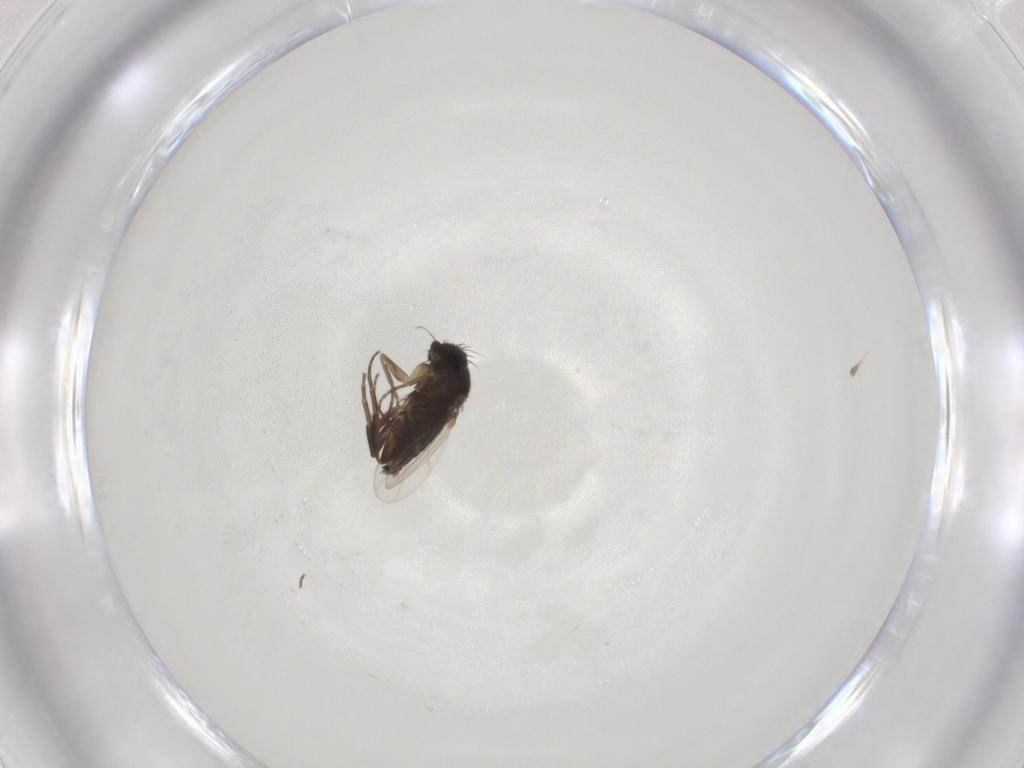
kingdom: Animalia
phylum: Arthropoda
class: Insecta
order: Diptera
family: Phoridae
